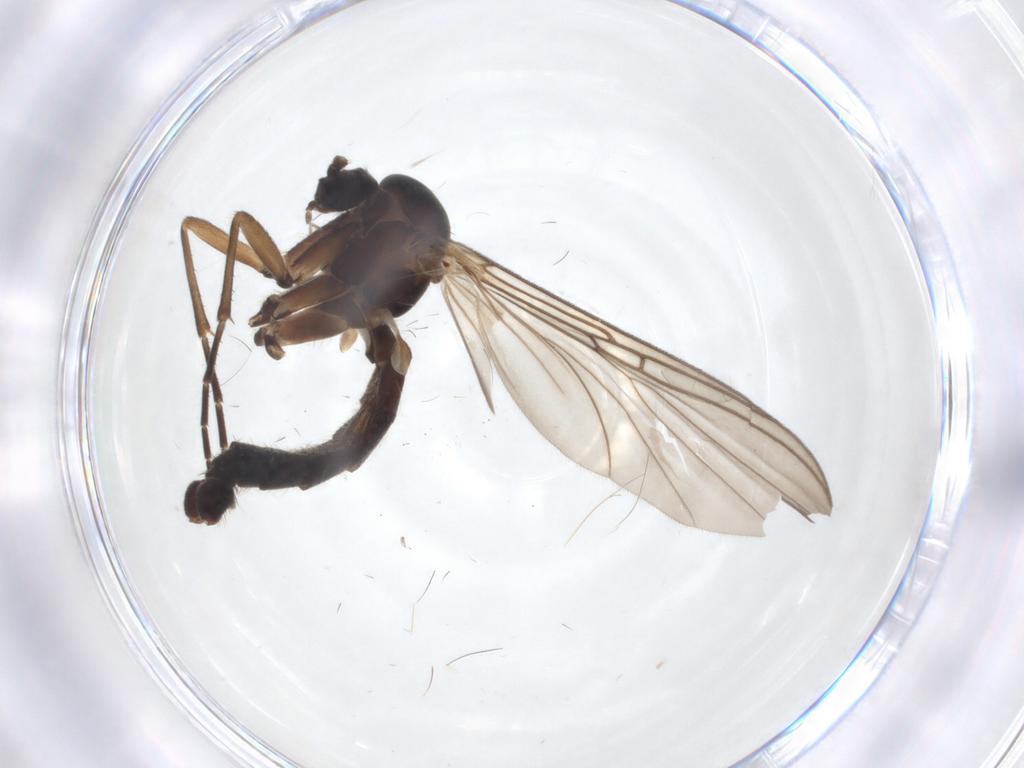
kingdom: Animalia
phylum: Arthropoda
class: Insecta
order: Diptera
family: Mycetophilidae
